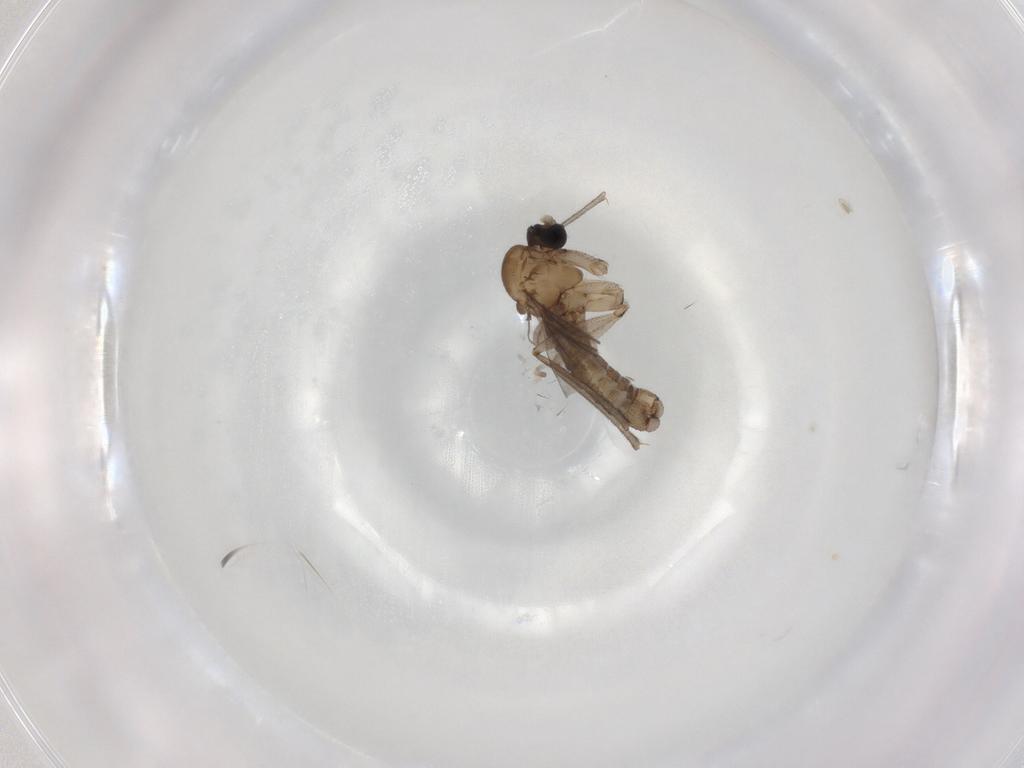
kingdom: Animalia
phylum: Arthropoda
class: Insecta
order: Diptera
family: Sciaridae
